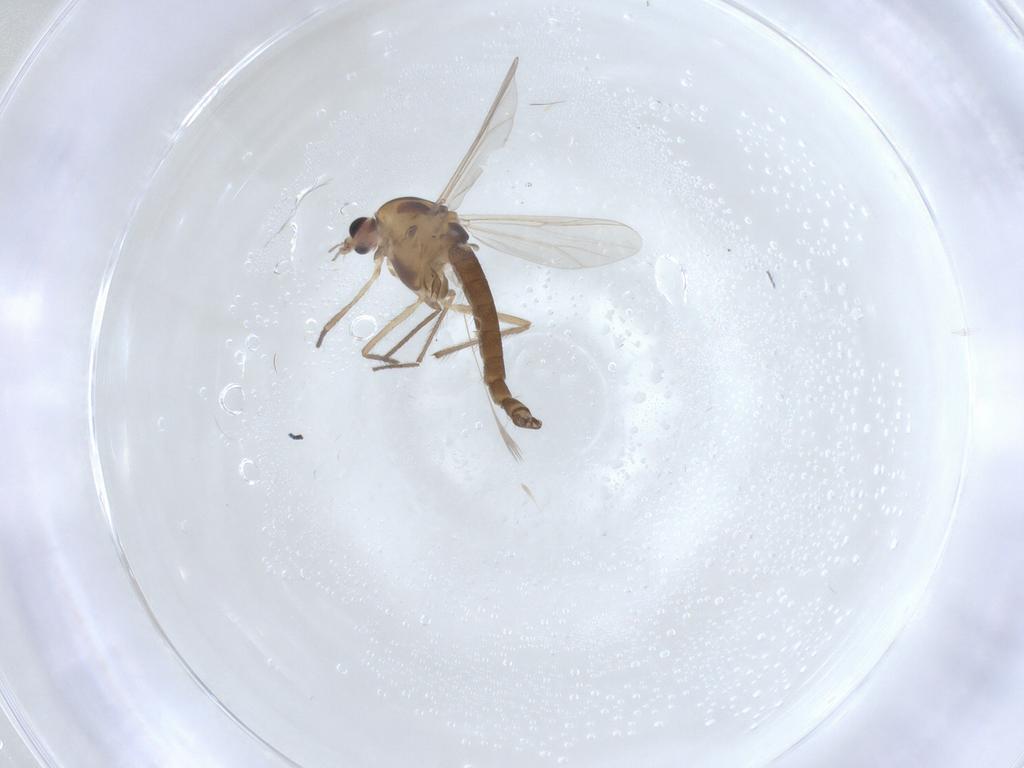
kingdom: Animalia
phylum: Arthropoda
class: Insecta
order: Diptera
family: Chironomidae
